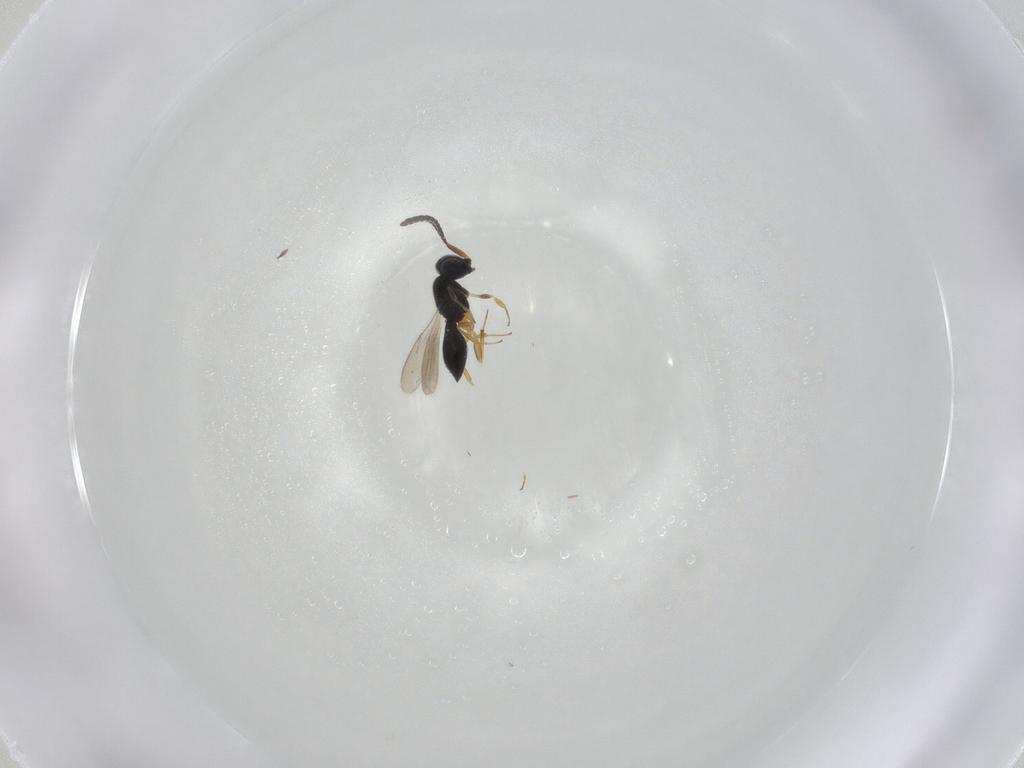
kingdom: Animalia
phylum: Arthropoda
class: Insecta
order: Hymenoptera
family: Scelionidae
